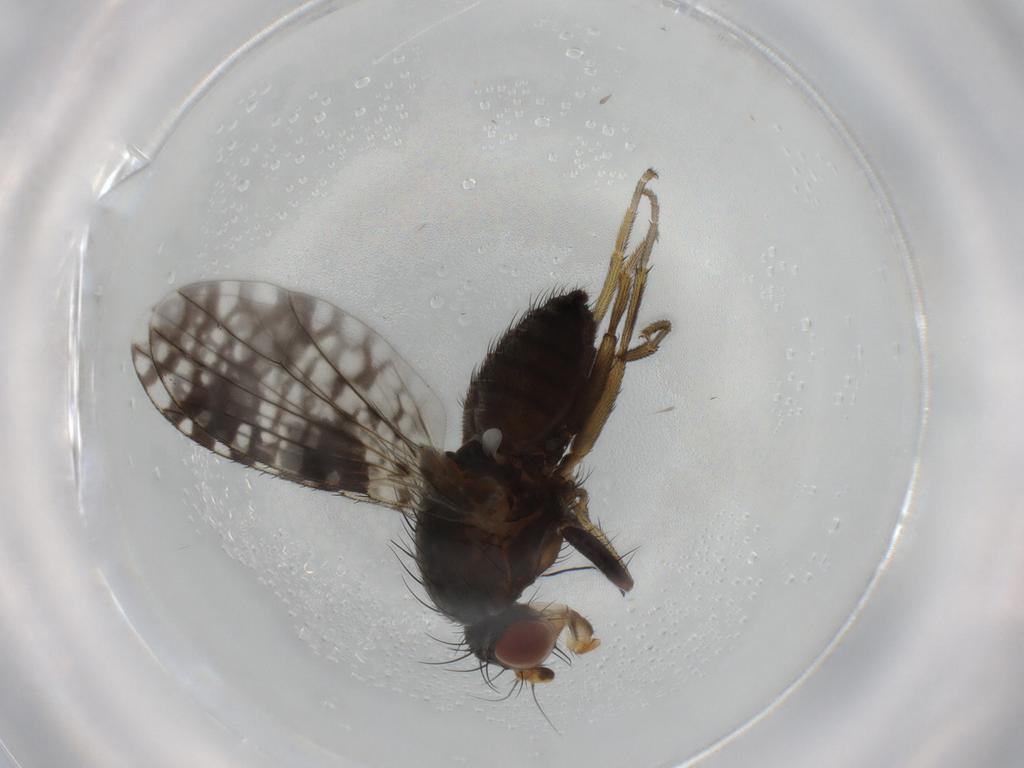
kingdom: Animalia
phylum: Arthropoda
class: Insecta
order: Diptera
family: Tephritidae
